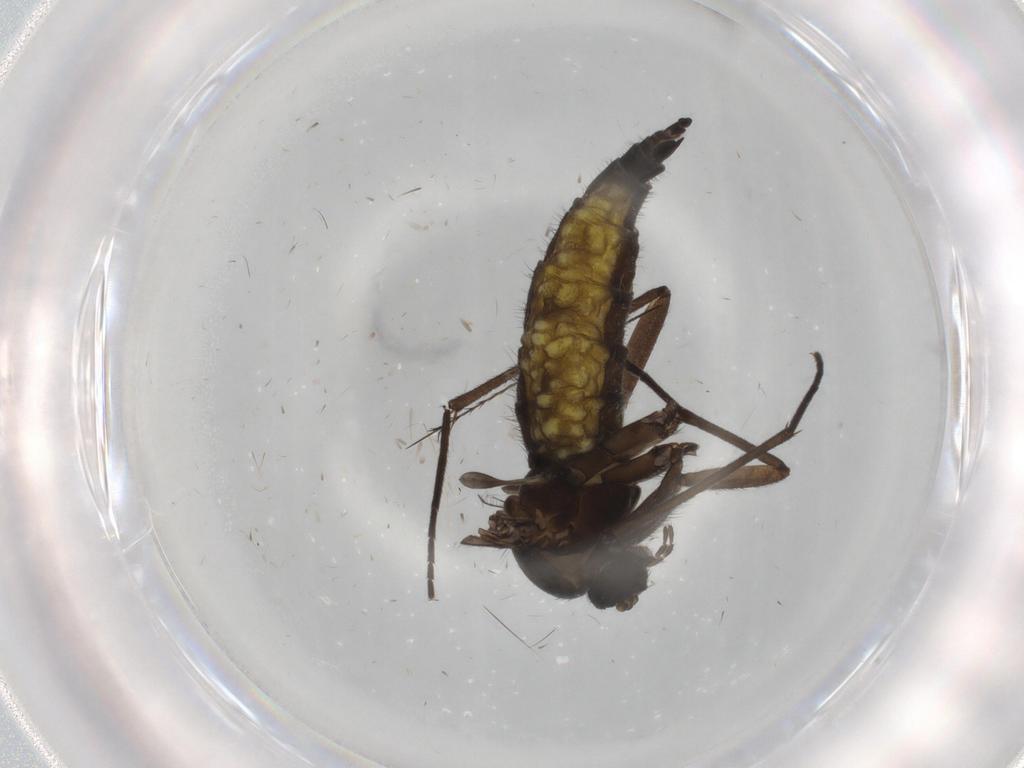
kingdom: Animalia
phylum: Arthropoda
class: Insecta
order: Diptera
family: Sciaridae
